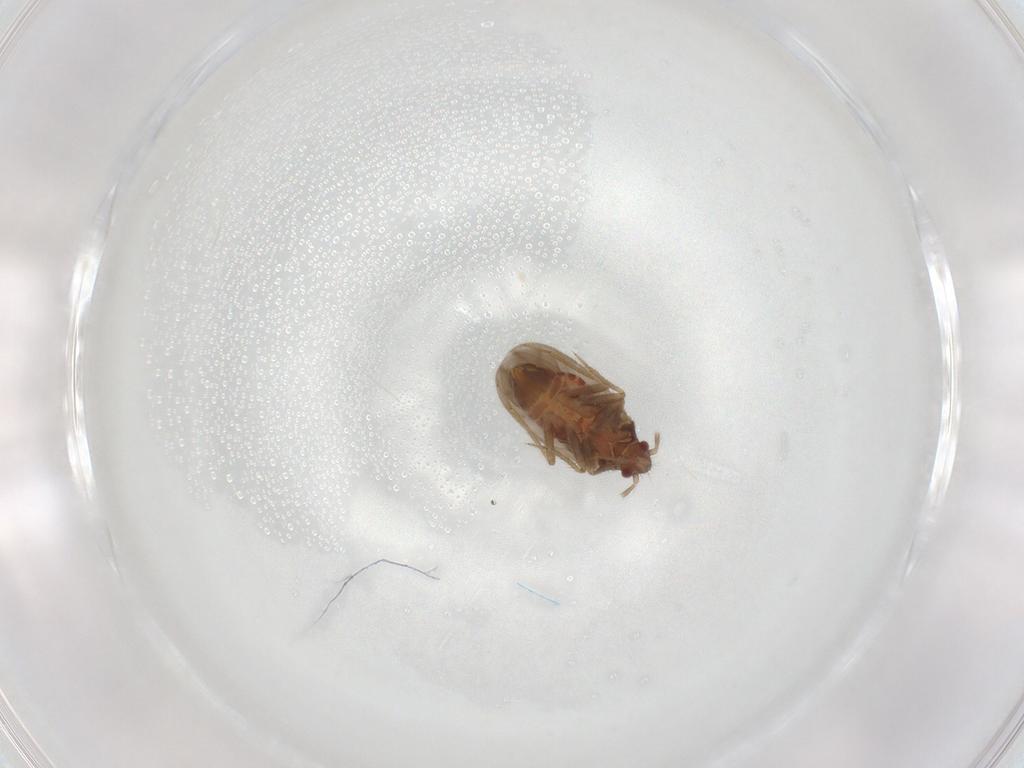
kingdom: Animalia
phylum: Arthropoda
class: Insecta
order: Hemiptera
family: Ceratocombidae
